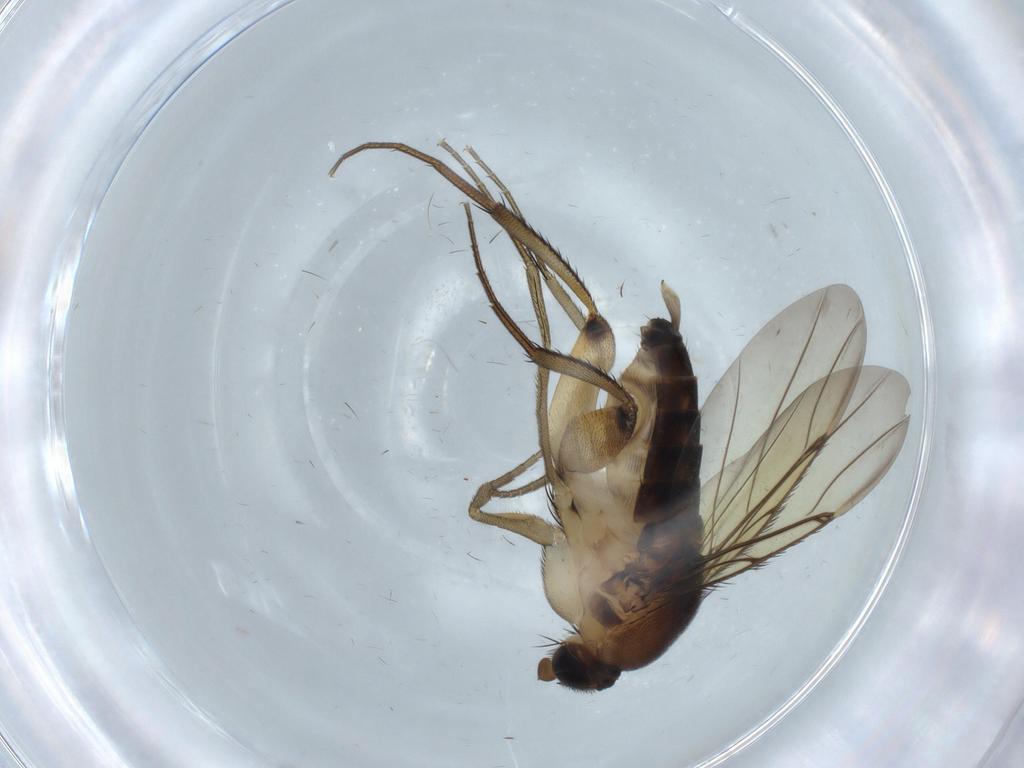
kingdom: Animalia
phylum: Arthropoda
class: Insecta
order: Diptera
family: Phoridae
